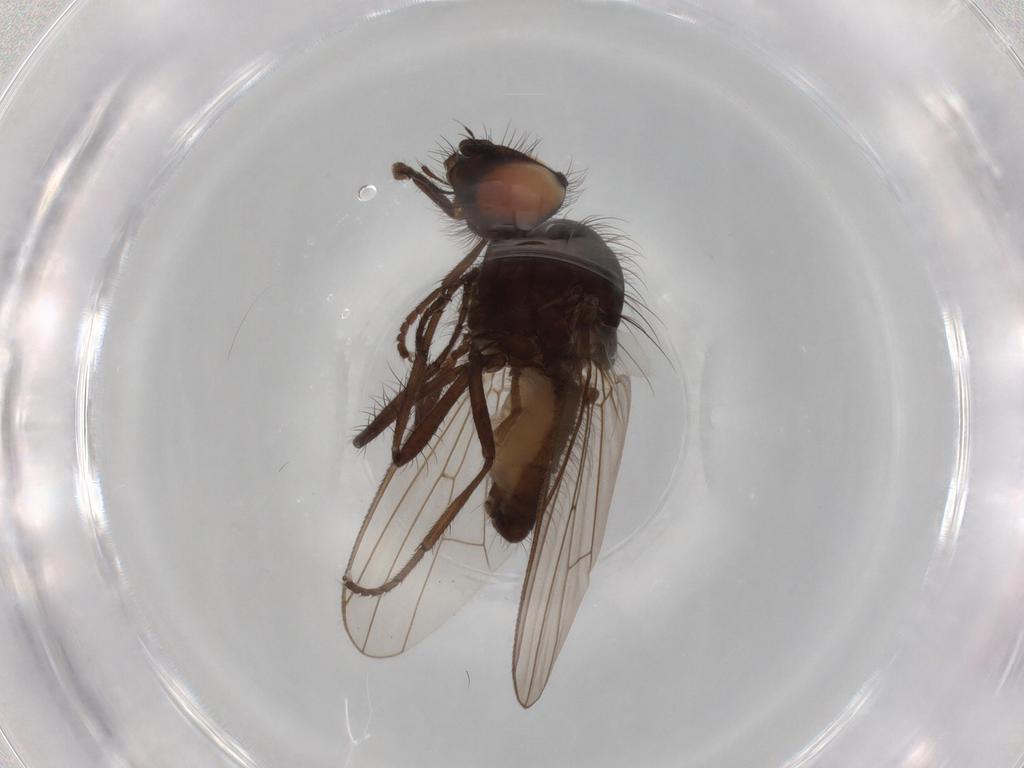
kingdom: Animalia
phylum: Arthropoda
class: Insecta
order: Diptera
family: Anthomyiidae
